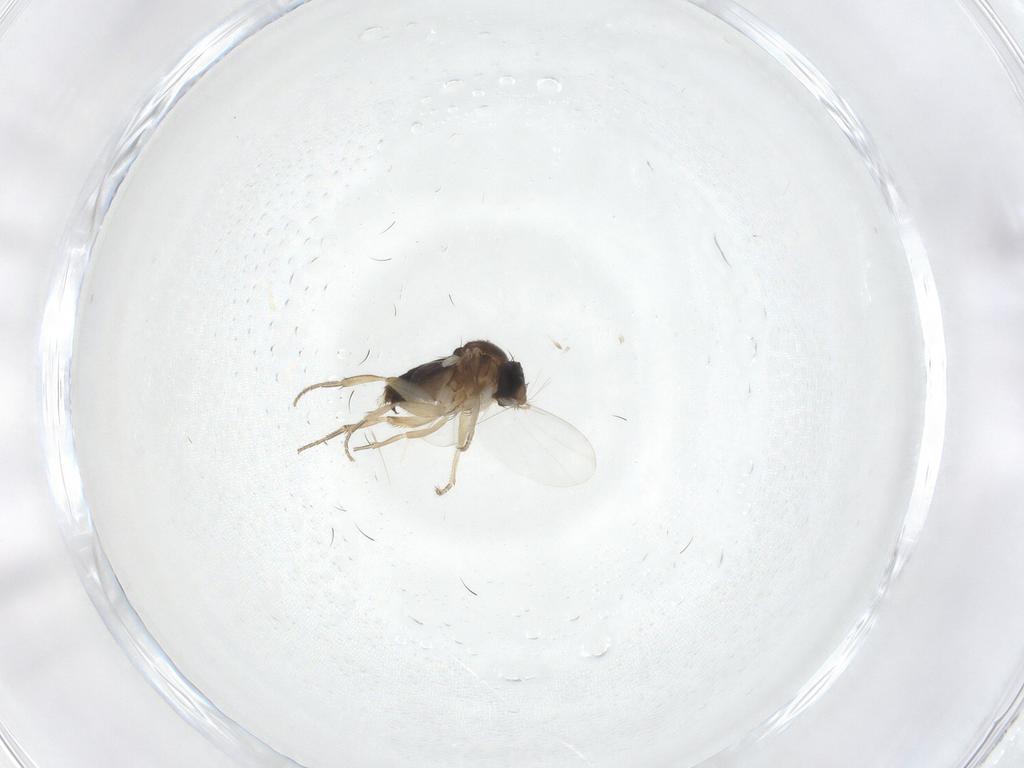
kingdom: Animalia
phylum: Arthropoda
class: Insecta
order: Diptera
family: Phoridae
